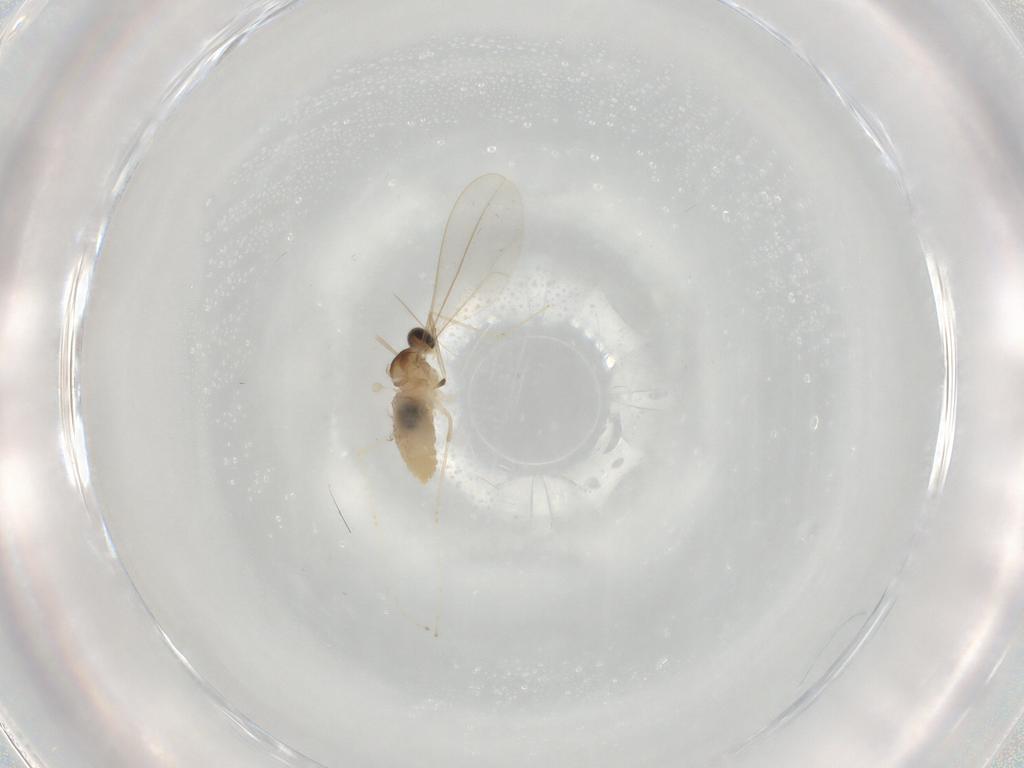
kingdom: Animalia
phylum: Arthropoda
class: Insecta
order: Diptera
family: Cecidomyiidae
